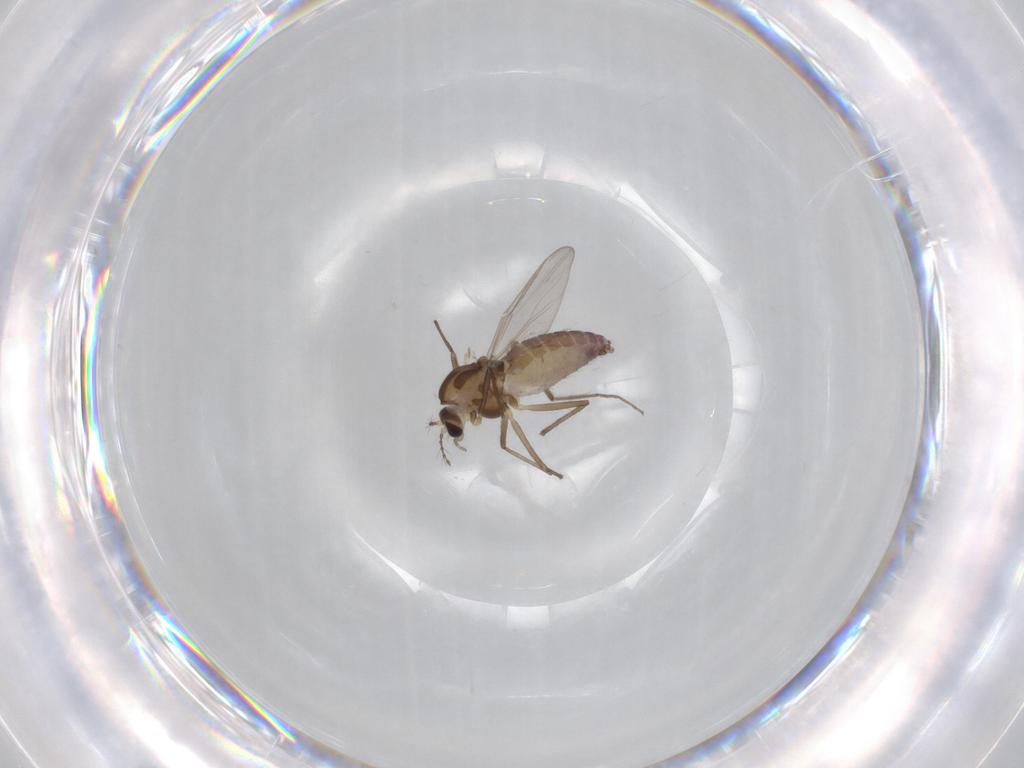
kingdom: Animalia
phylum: Arthropoda
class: Insecta
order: Diptera
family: Chironomidae
